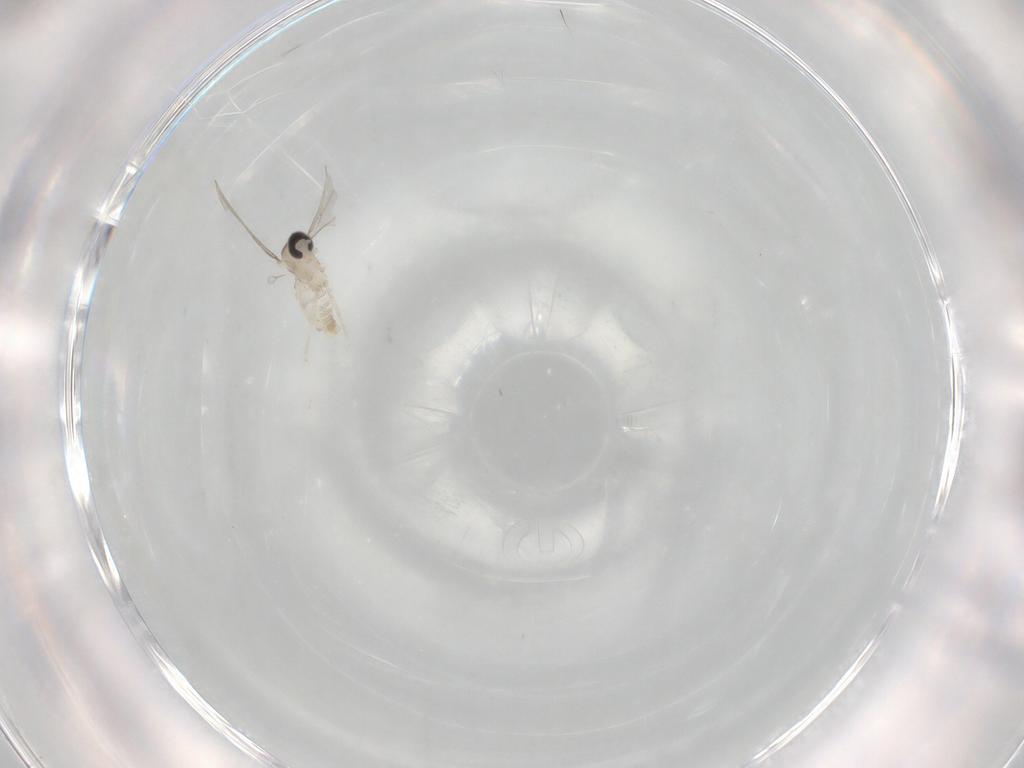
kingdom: Animalia
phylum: Arthropoda
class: Insecta
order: Diptera
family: Cecidomyiidae
